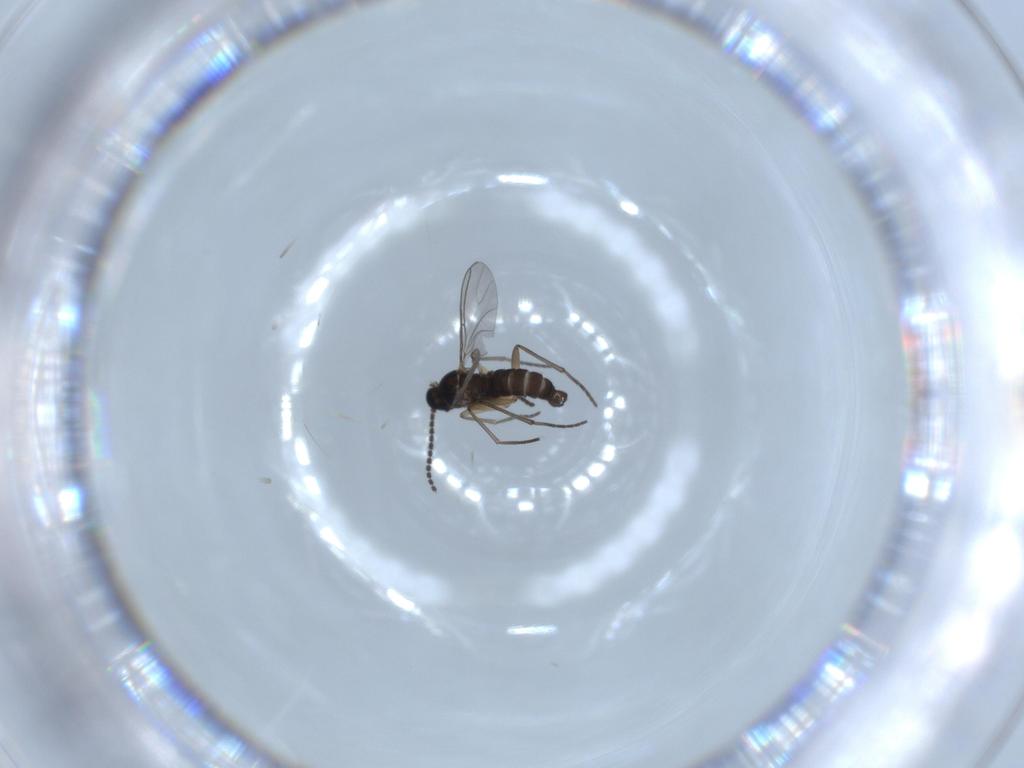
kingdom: Animalia
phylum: Arthropoda
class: Insecta
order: Diptera
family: Sciaridae
